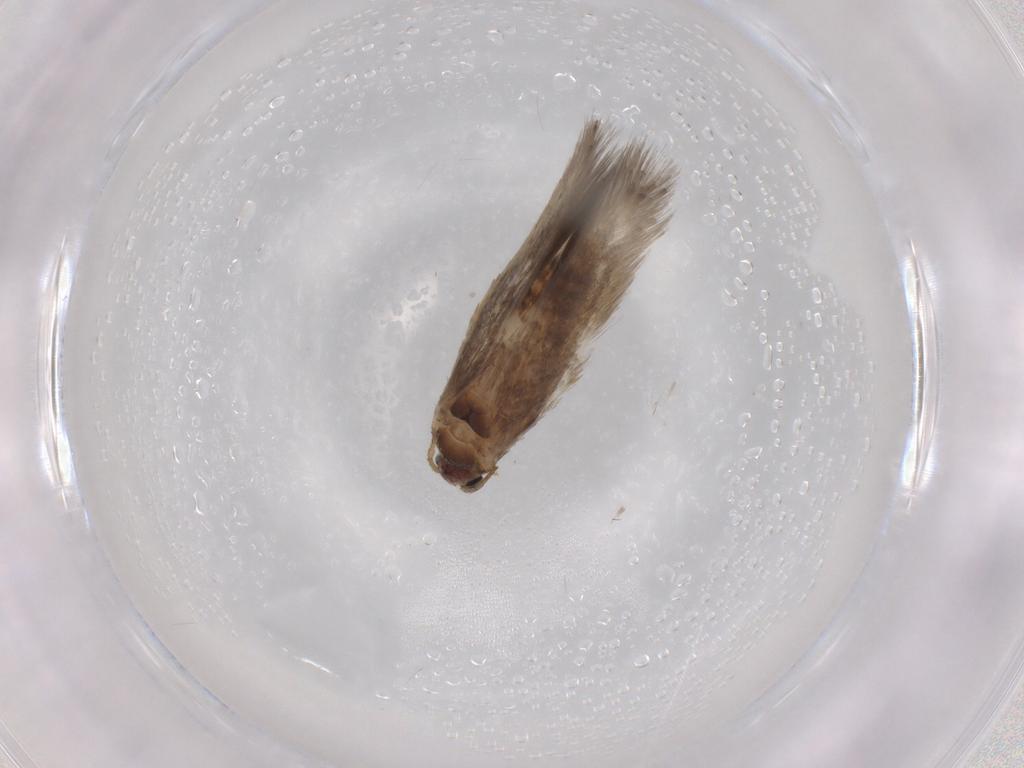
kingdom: Animalia
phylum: Arthropoda
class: Insecta
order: Lepidoptera
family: Nepticulidae
